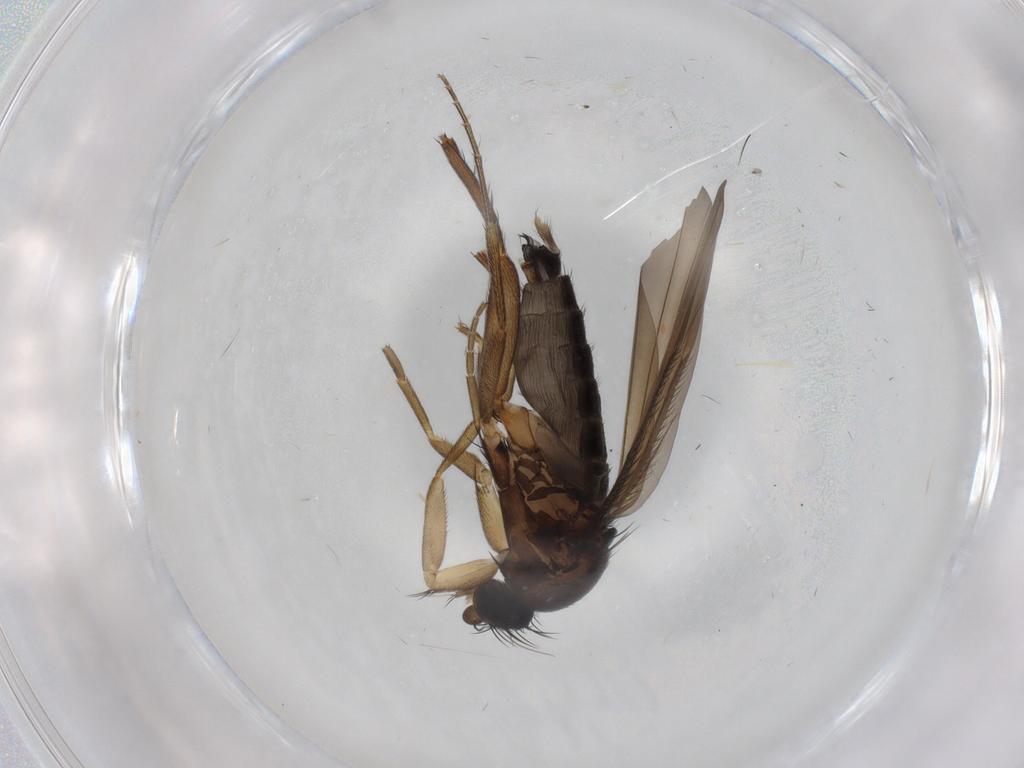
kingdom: Animalia
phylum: Arthropoda
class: Insecta
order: Diptera
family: Phoridae
